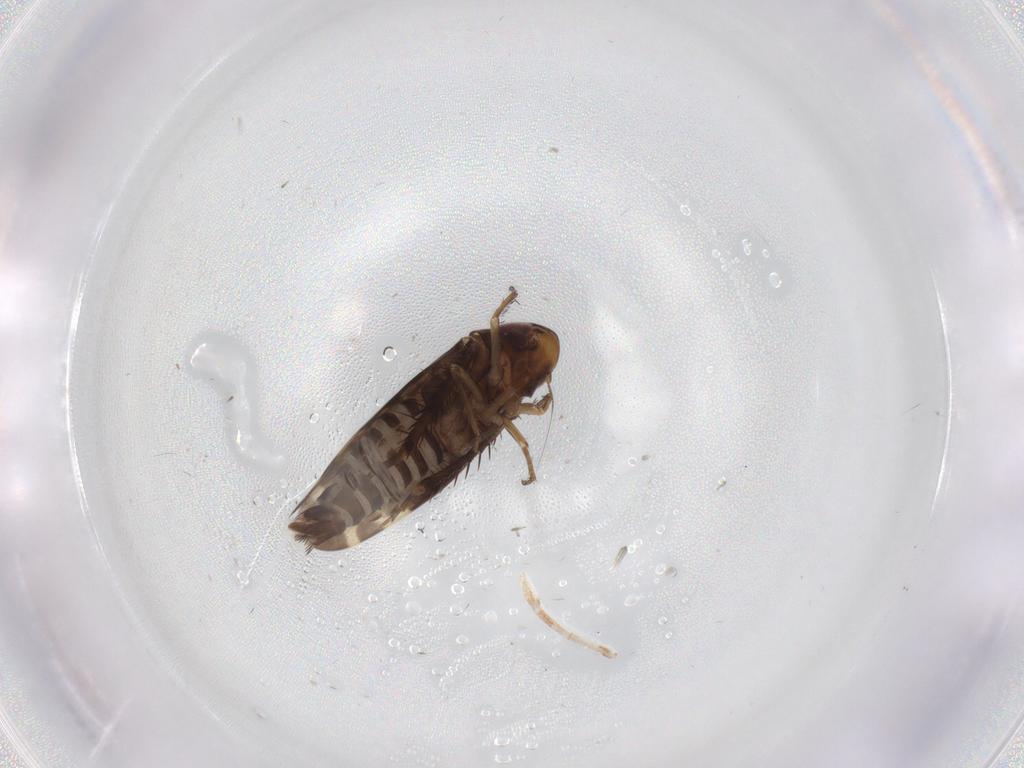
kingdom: Animalia
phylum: Arthropoda
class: Insecta
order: Hemiptera
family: Cicadellidae
